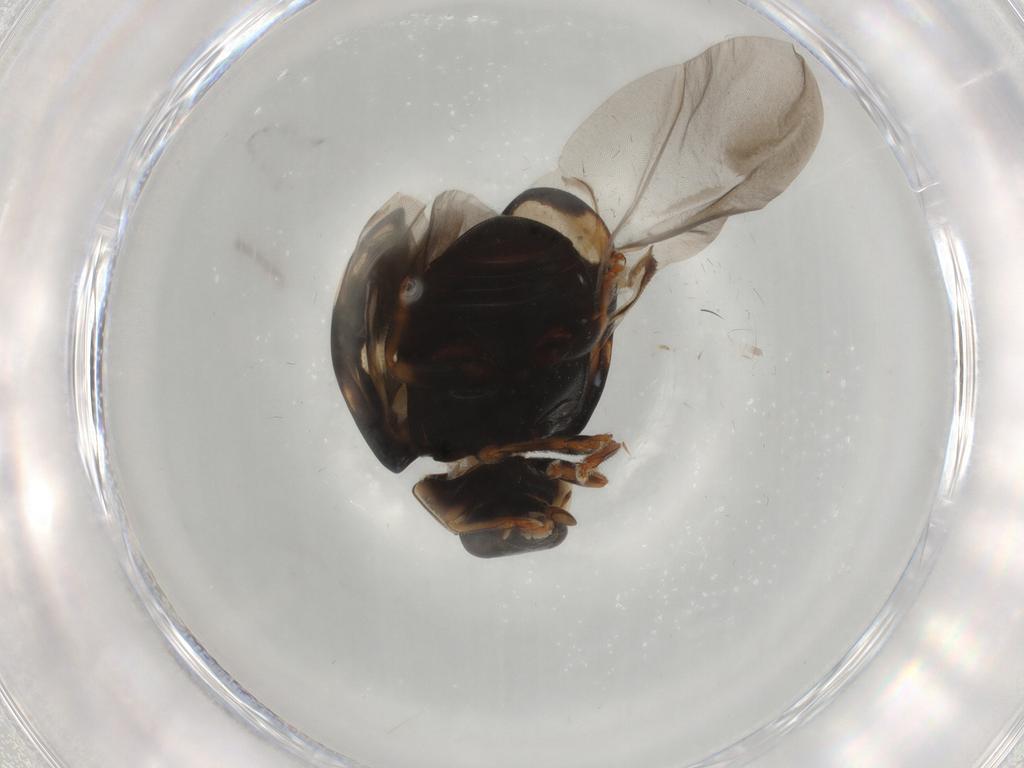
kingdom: Animalia
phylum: Arthropoda
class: Insecta
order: Coleoptera
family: Coccinellidae
